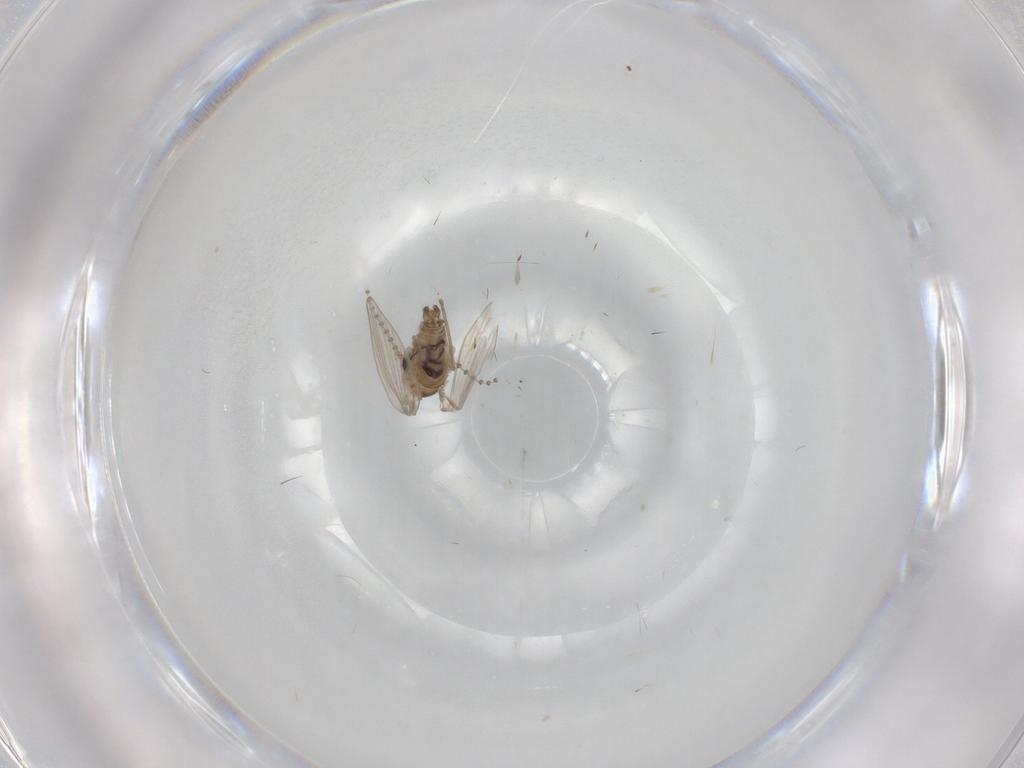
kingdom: Animalia
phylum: Arthropoda
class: Insecta
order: Diptera
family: Psychodidae
